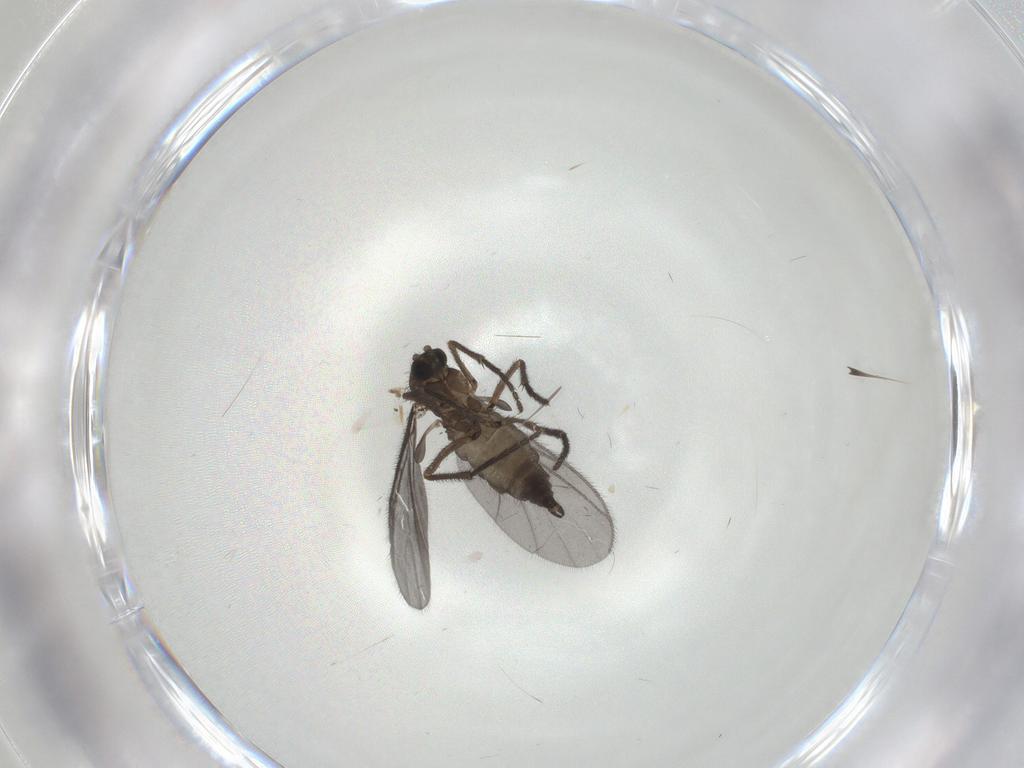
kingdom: Animalia
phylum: Arthropoda
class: Insecta
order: Diptera
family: Sciaridae
